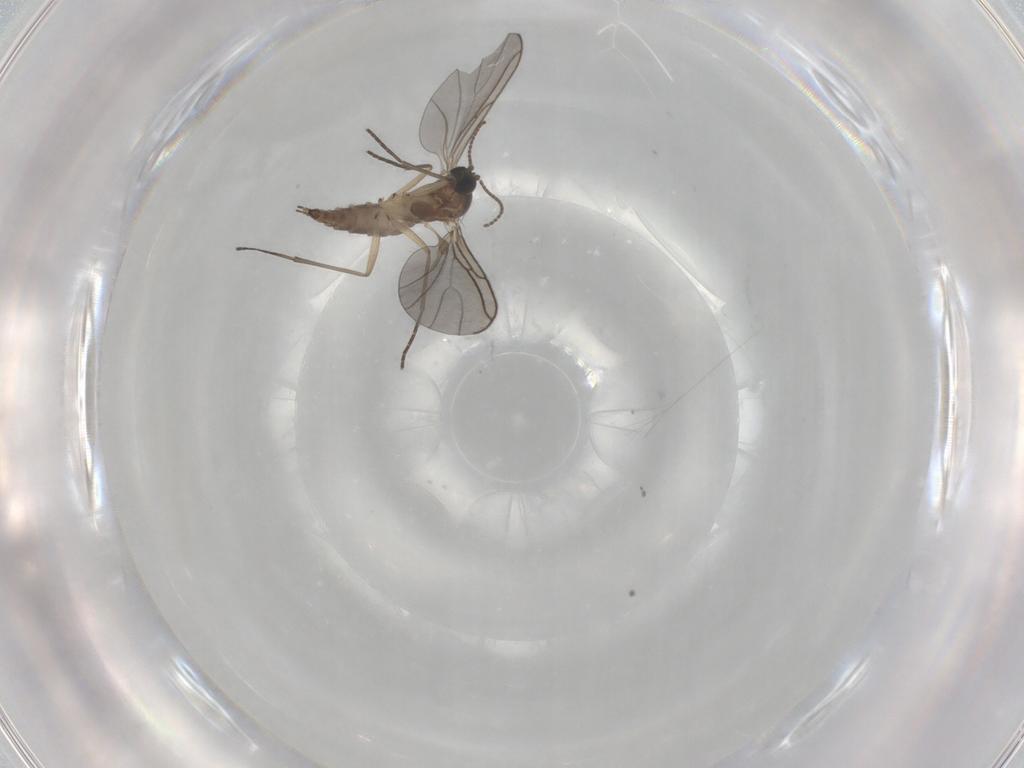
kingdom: Animalia
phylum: Arthropoda
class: Insecta
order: Diptera
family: Sciaridae
